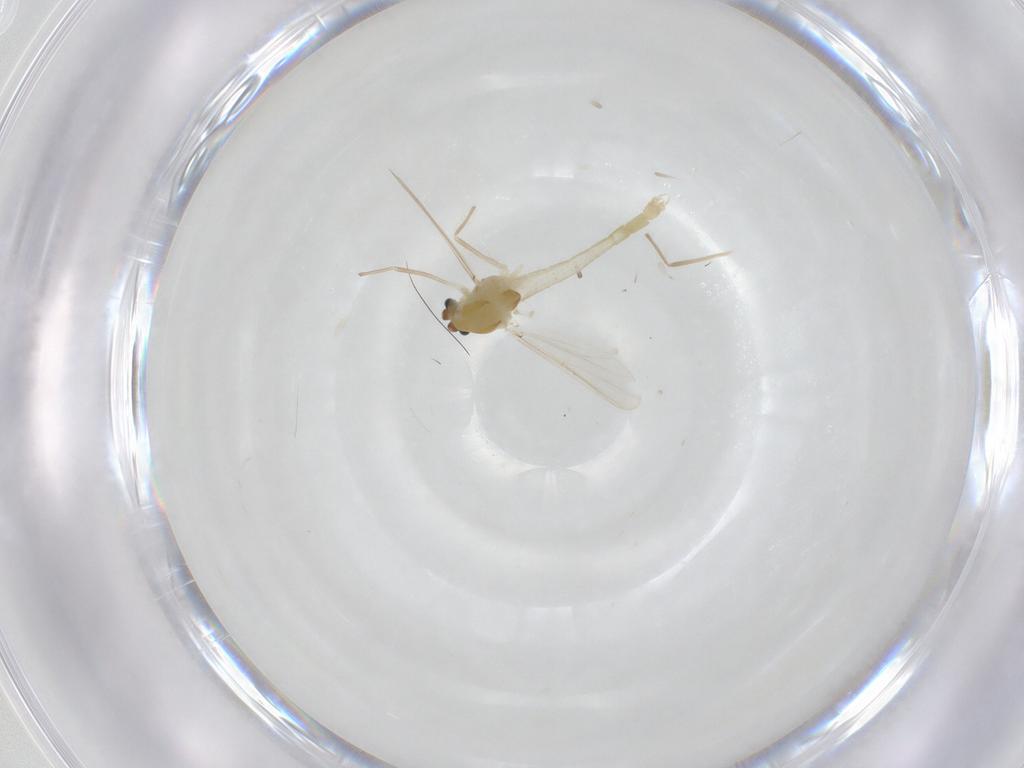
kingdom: Animalia
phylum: Arthropoda
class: Insecta
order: Diptera
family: Chironomidae
